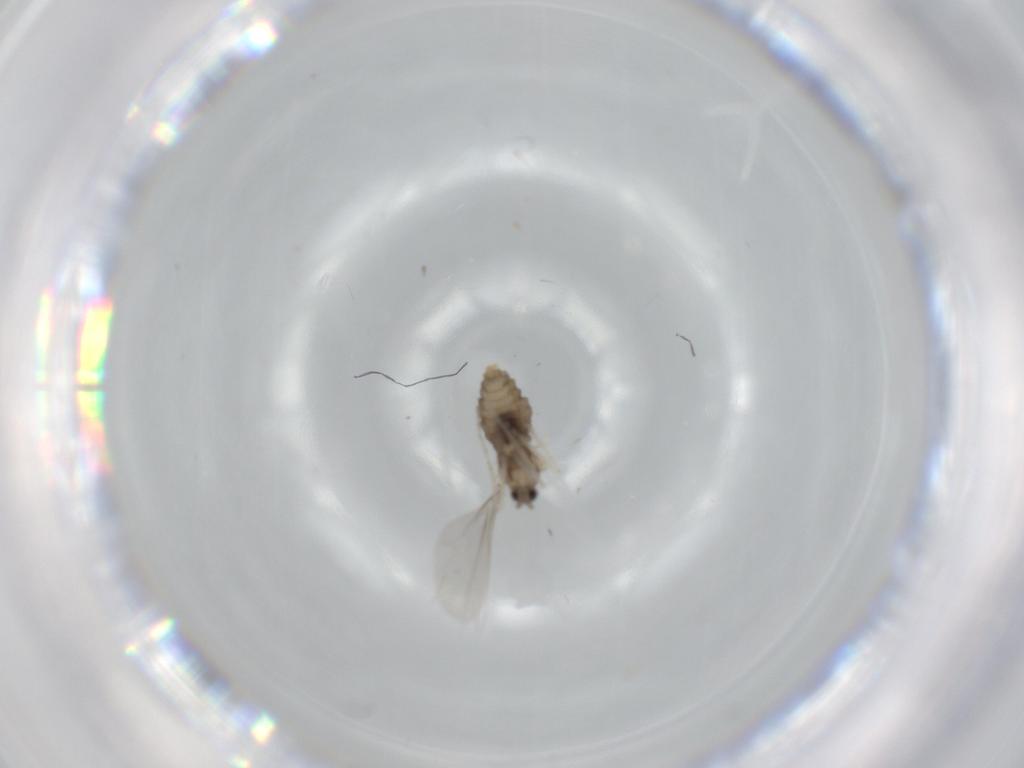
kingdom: Animalia
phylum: Arthropoda
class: Insecta
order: Diptera
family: Cecidomyiidae
